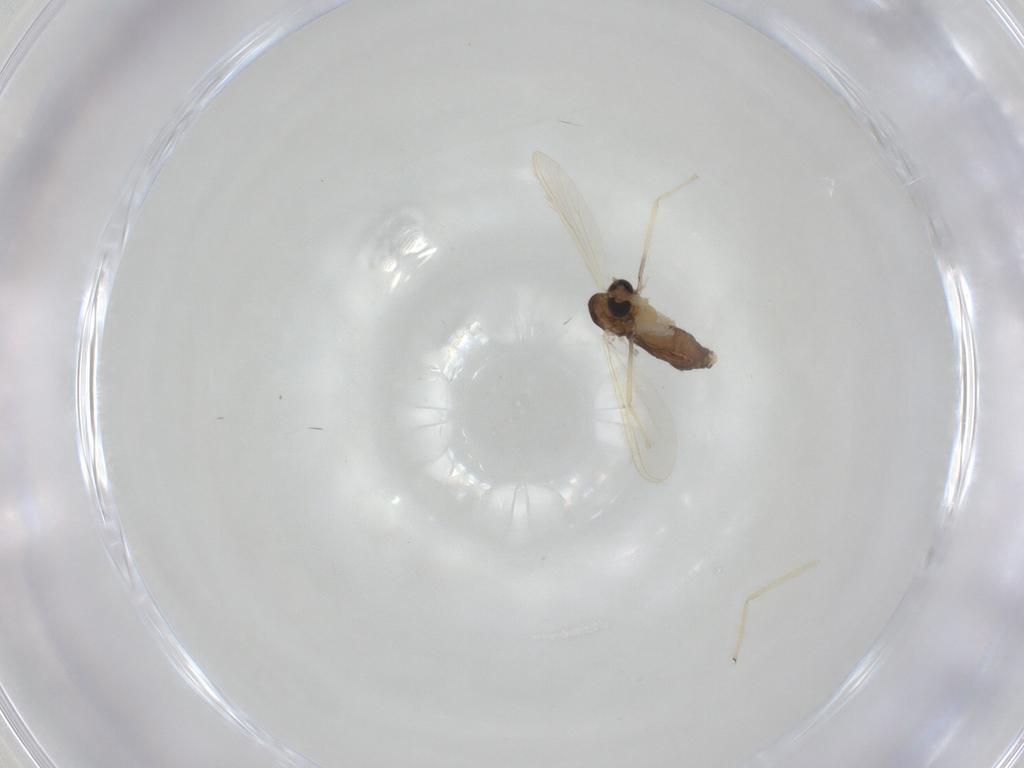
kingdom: Animalia
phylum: Arthropoda
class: Insecta
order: Diptera
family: Chironomidae
